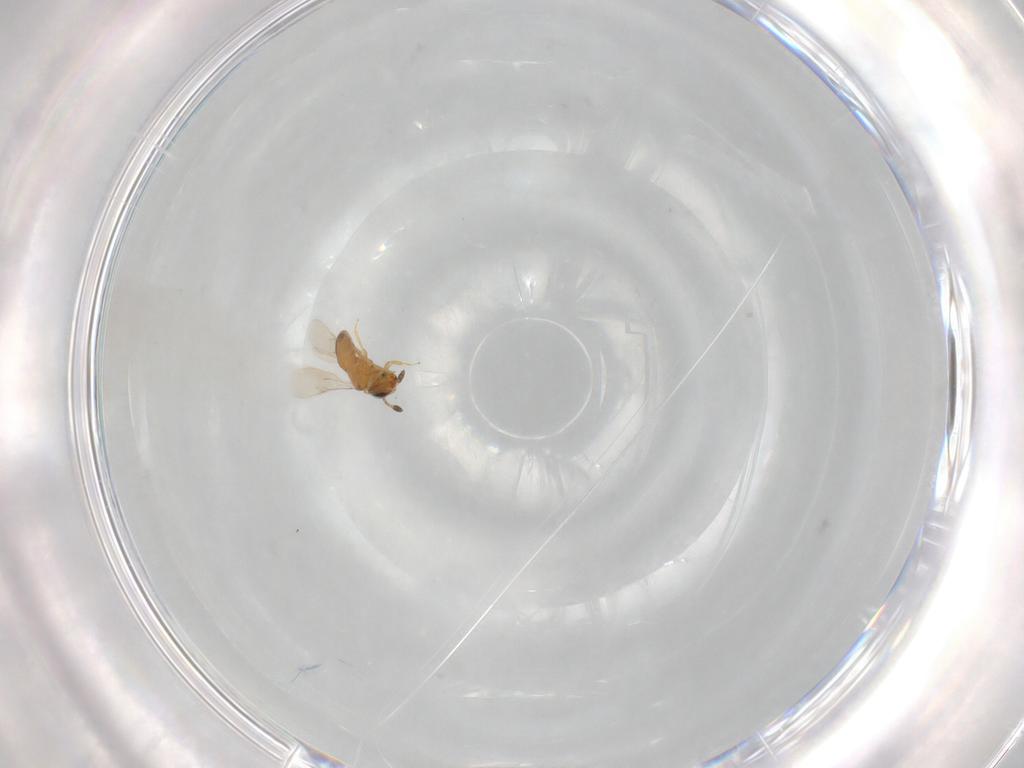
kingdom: Animalia
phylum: Arthropoda
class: Insecta
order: Hymenoptera
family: Scelionidae
